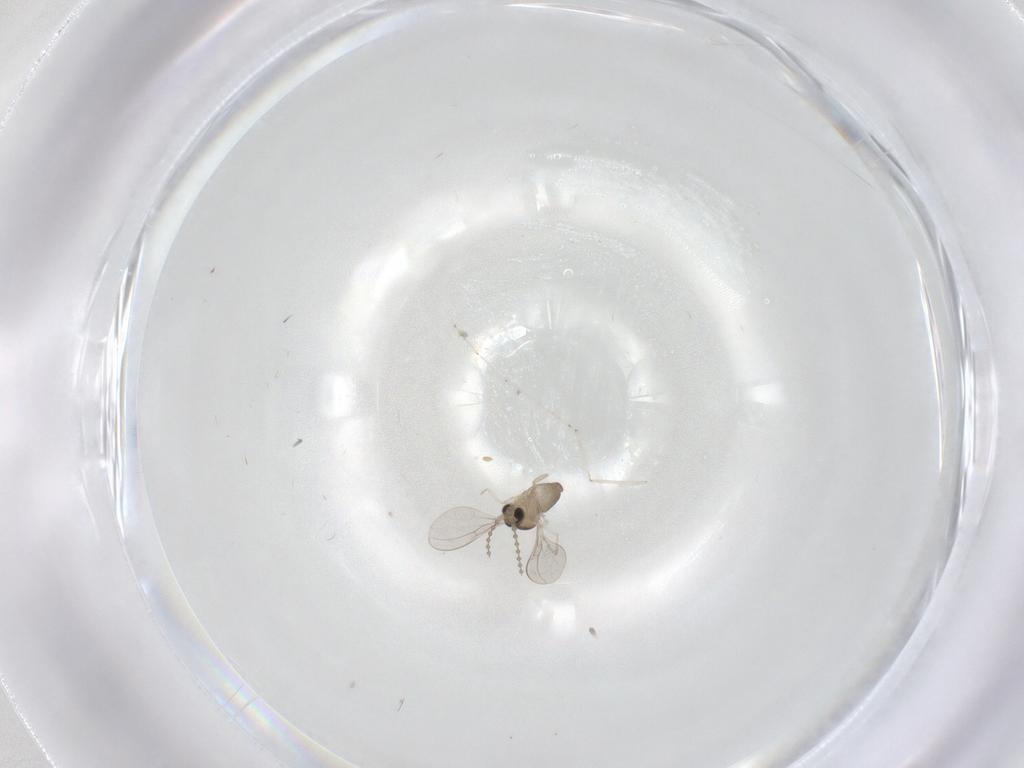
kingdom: Animalia
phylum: Arthropoda
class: Insecta
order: Diptera
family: Cecidomyiidae
